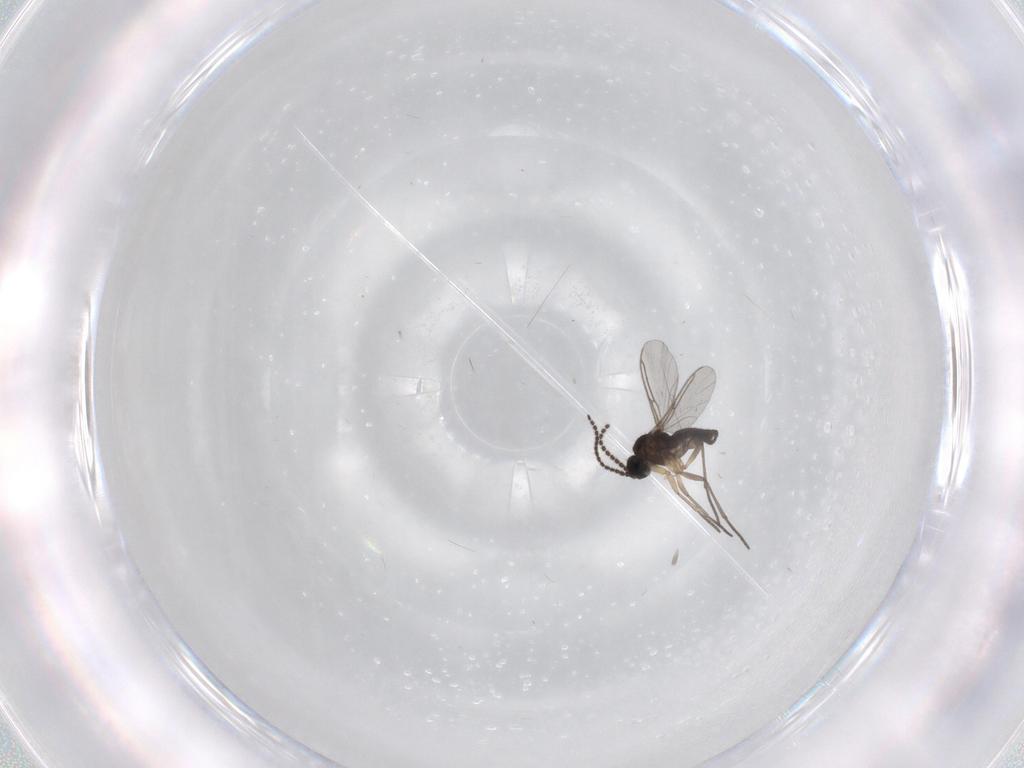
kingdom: Animalia
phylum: Arthropoda
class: Insecta
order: Diptera
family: Sciaridae
